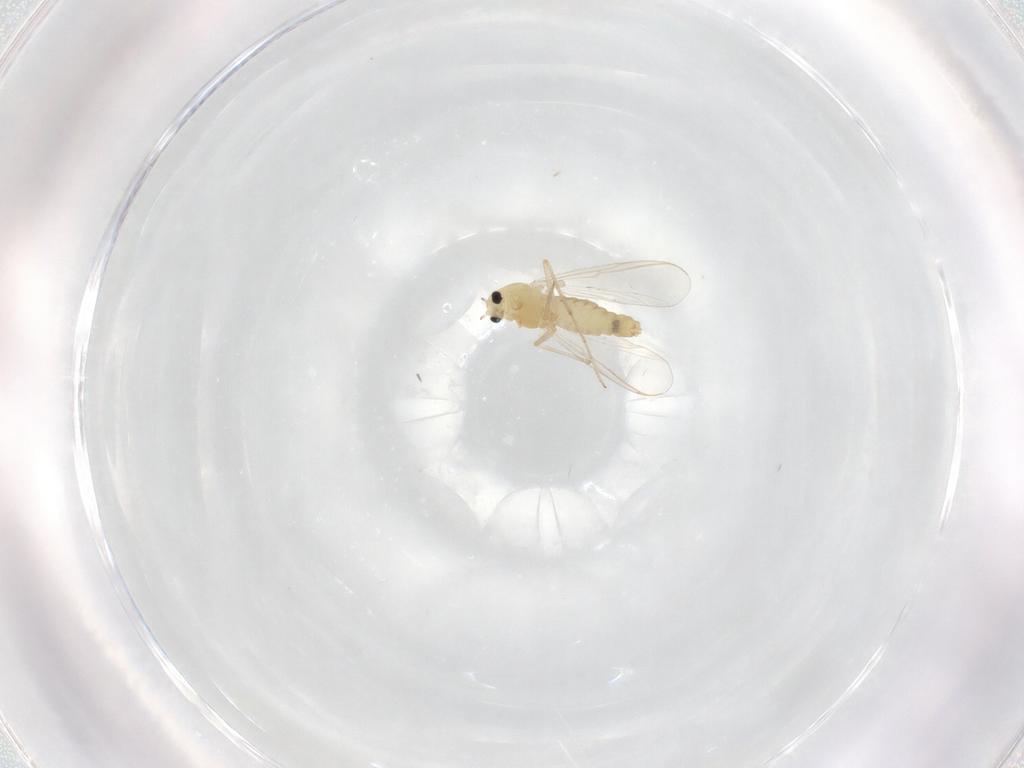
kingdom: Animalia
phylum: Arthropoda
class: Insecta
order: Diptera
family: Chironomidae
